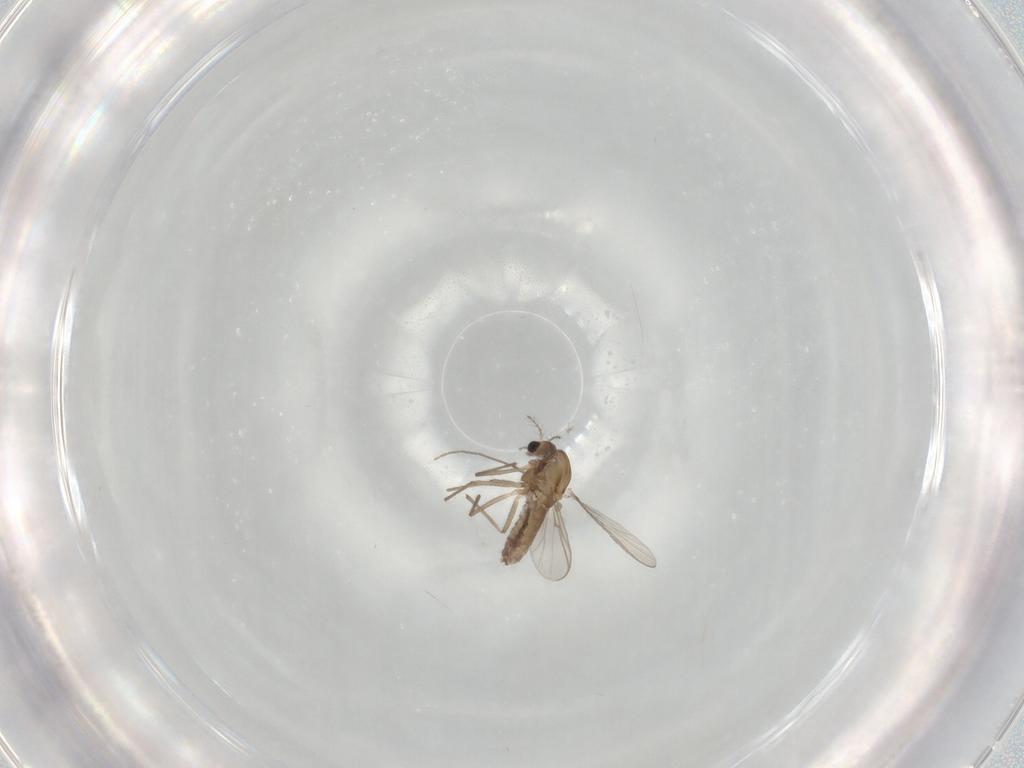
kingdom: Animalia
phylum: Arthropoda
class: Insecta
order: Diptera
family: Chironomidae
